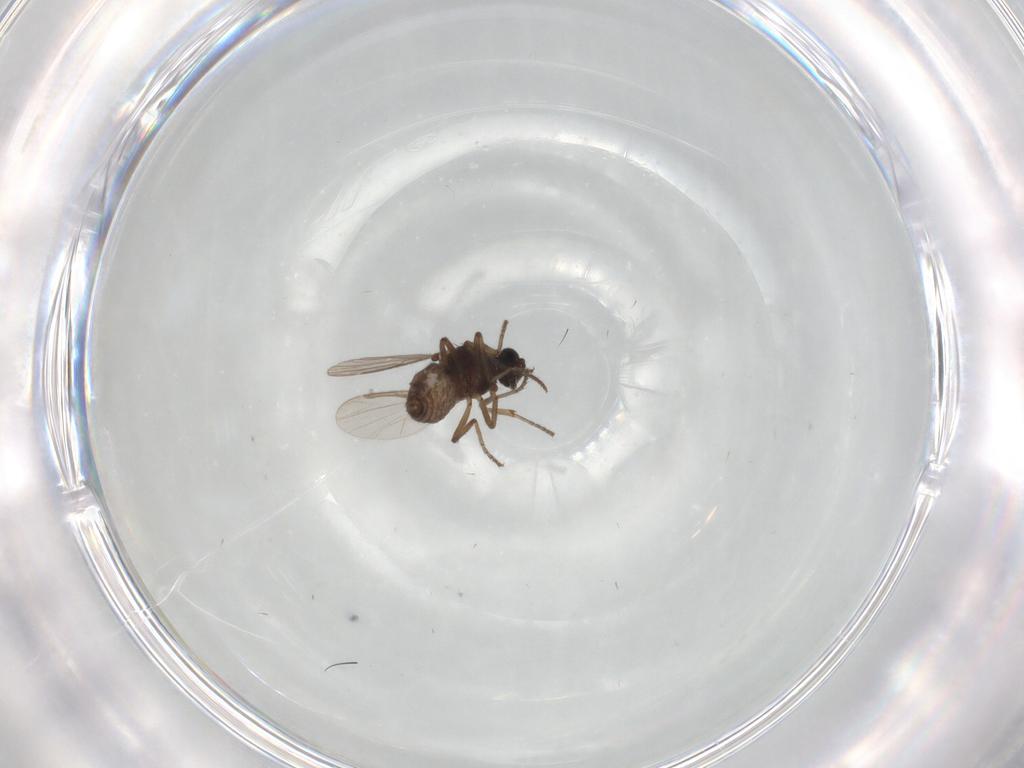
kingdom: Animalia
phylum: Arthropoda
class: Insecta
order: Diptera
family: Ceratopogonidae
